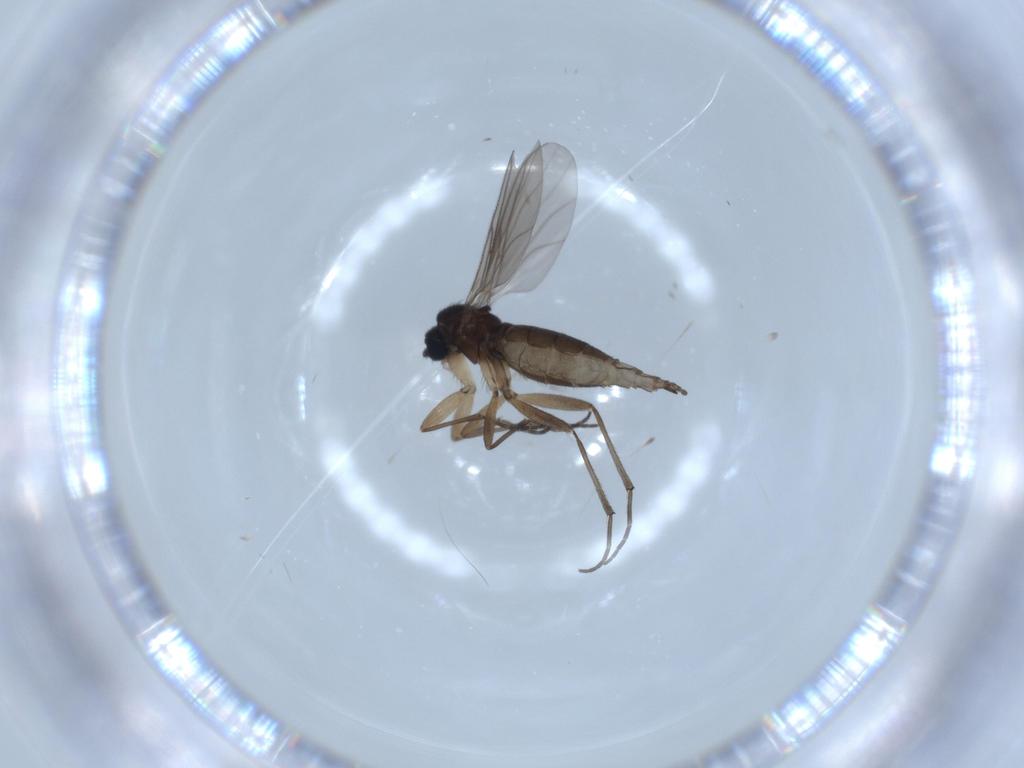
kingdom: Animalia
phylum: Arthropoda
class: Insecta
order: Diptera
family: Sciaridae
